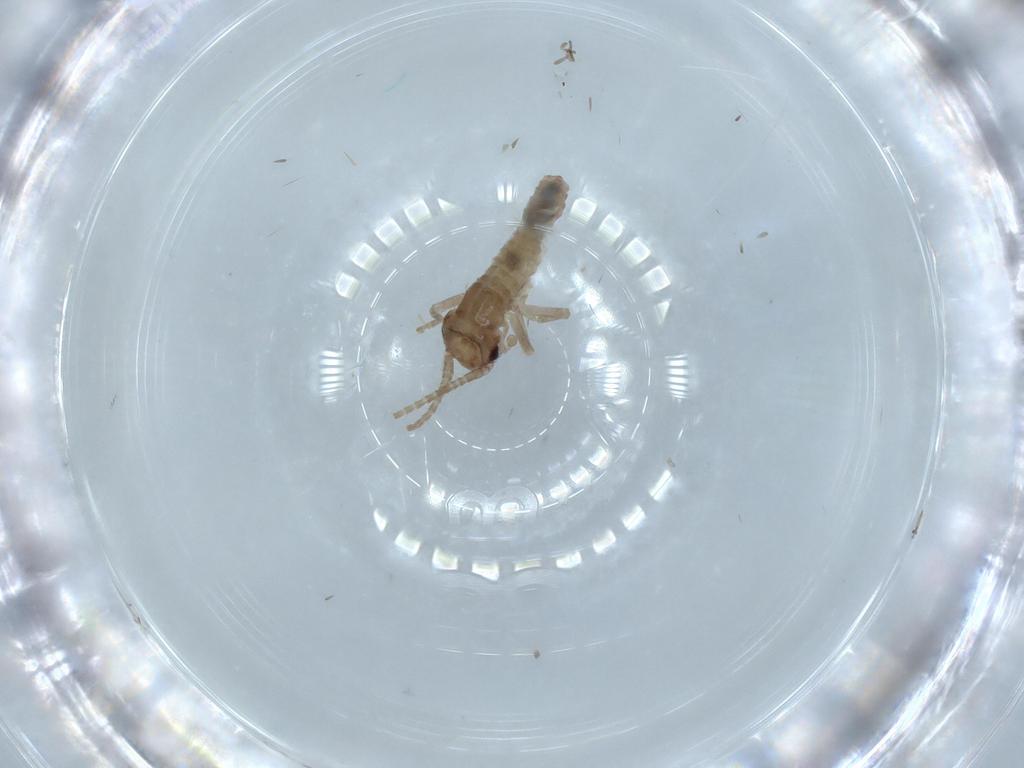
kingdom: Animalia
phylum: Arthropoda
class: Insecta
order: Orthoptera
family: Mogoplistidae
